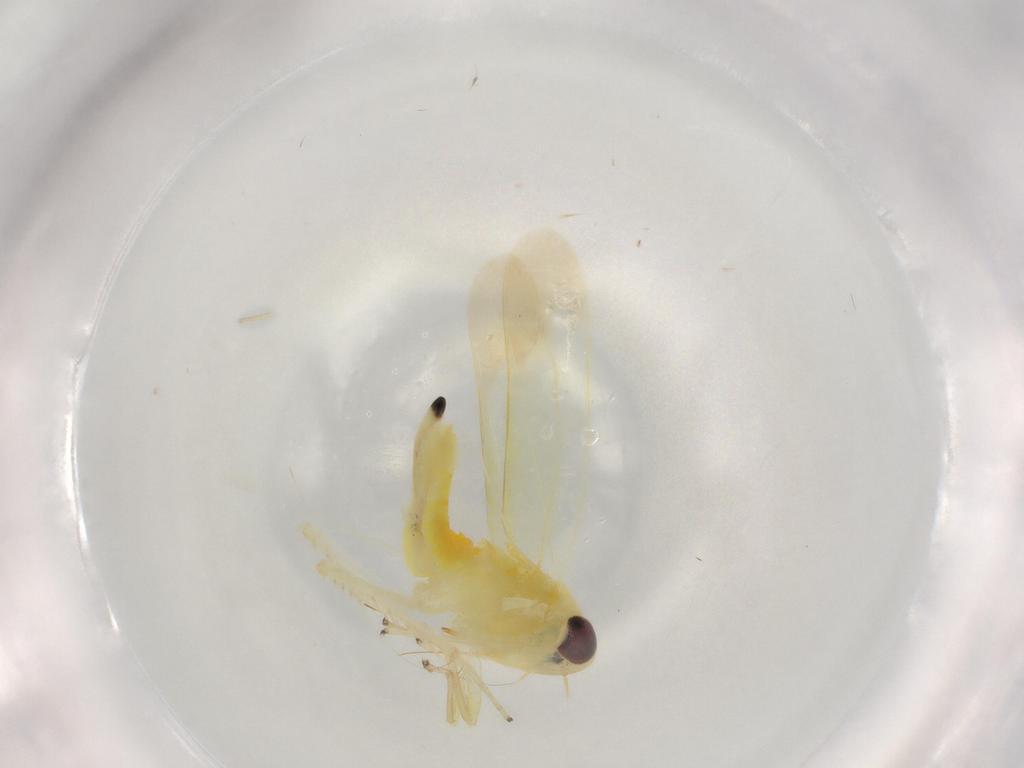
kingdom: Animalia
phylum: Arthropoda
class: Insecta
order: Hemiptera
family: Cicadellidae
